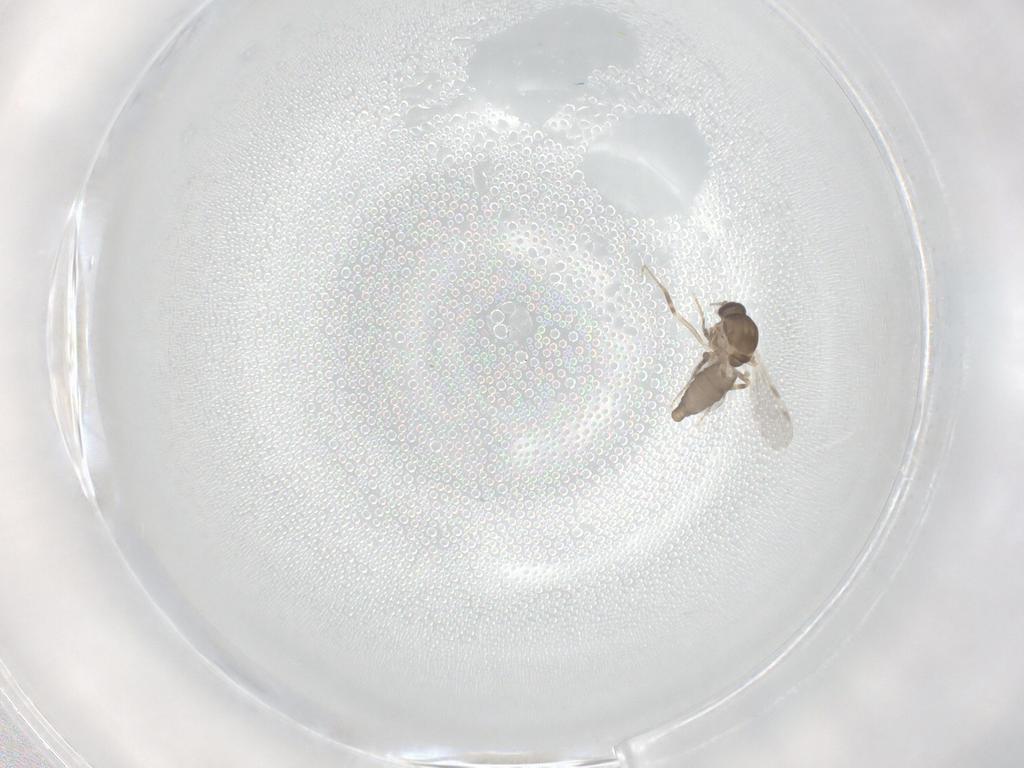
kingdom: Animalia
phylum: Arthropoda
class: Insecta
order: Diptera
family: Ceratopogonidae
